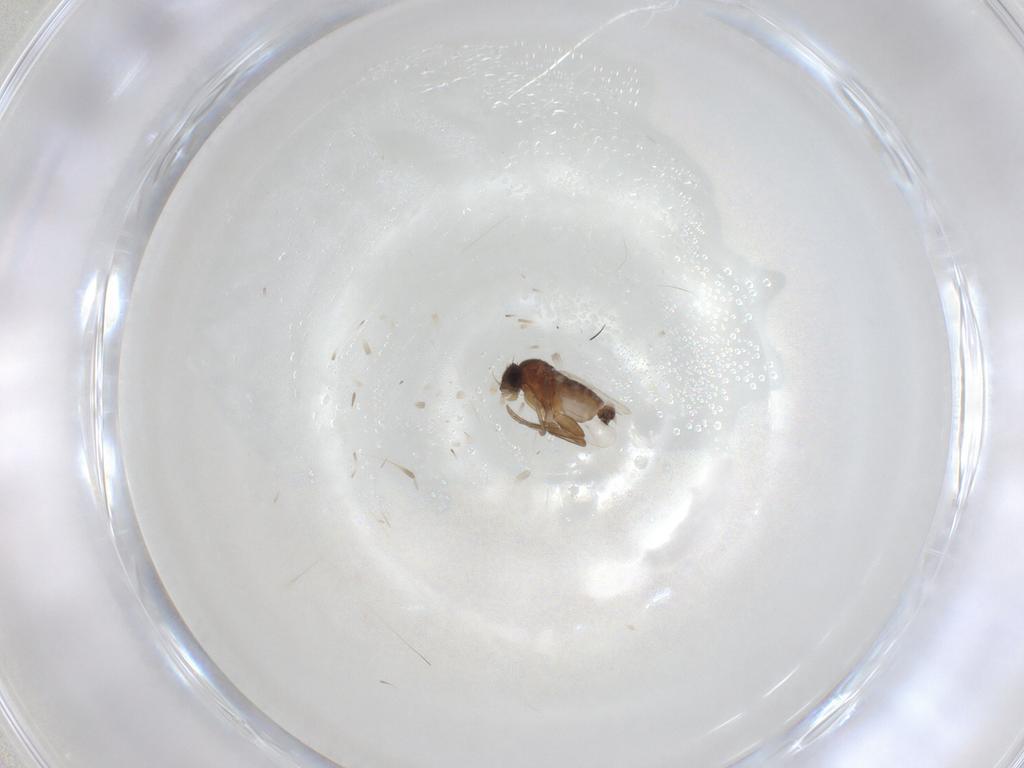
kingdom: Animalia
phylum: Arthropoda
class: Insecta
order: Diptera
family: Phoridae
